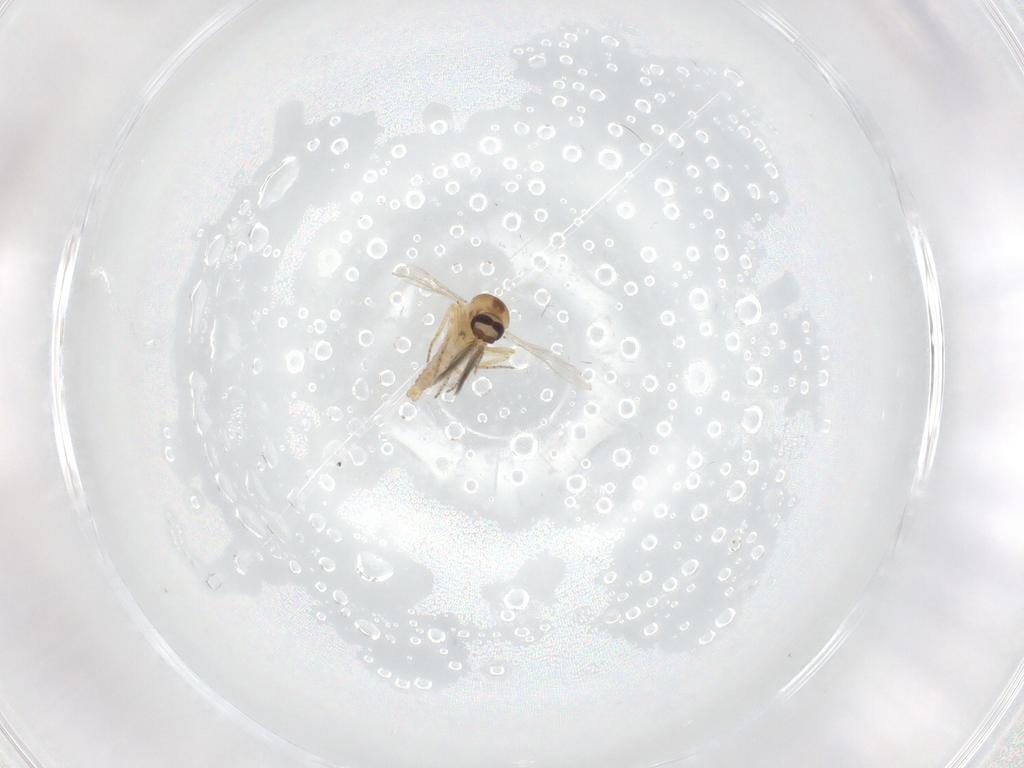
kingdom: Animalia
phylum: Arthropoda
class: Insecta
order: Diptera
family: Ceratopogonidae
